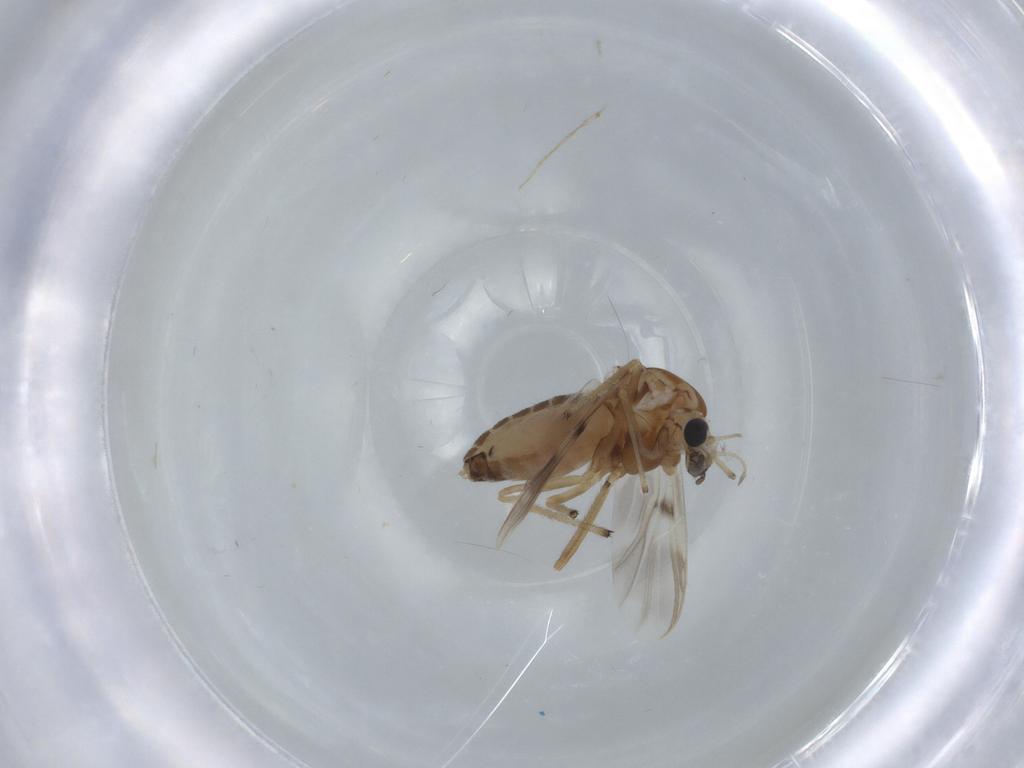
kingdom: Animalia
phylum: Arthropoda
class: Insecta
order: Diptera
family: Chironomidae
